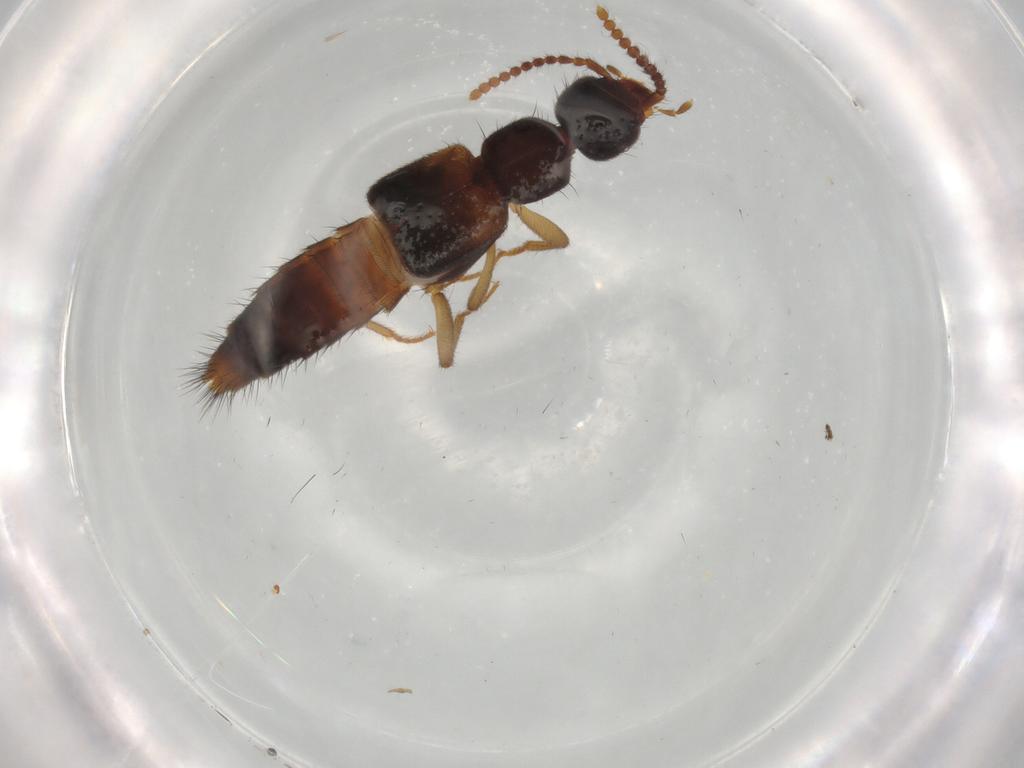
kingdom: Animalia
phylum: Arthropoda
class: Insecta
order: Coleoptera
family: Staphylinidae
